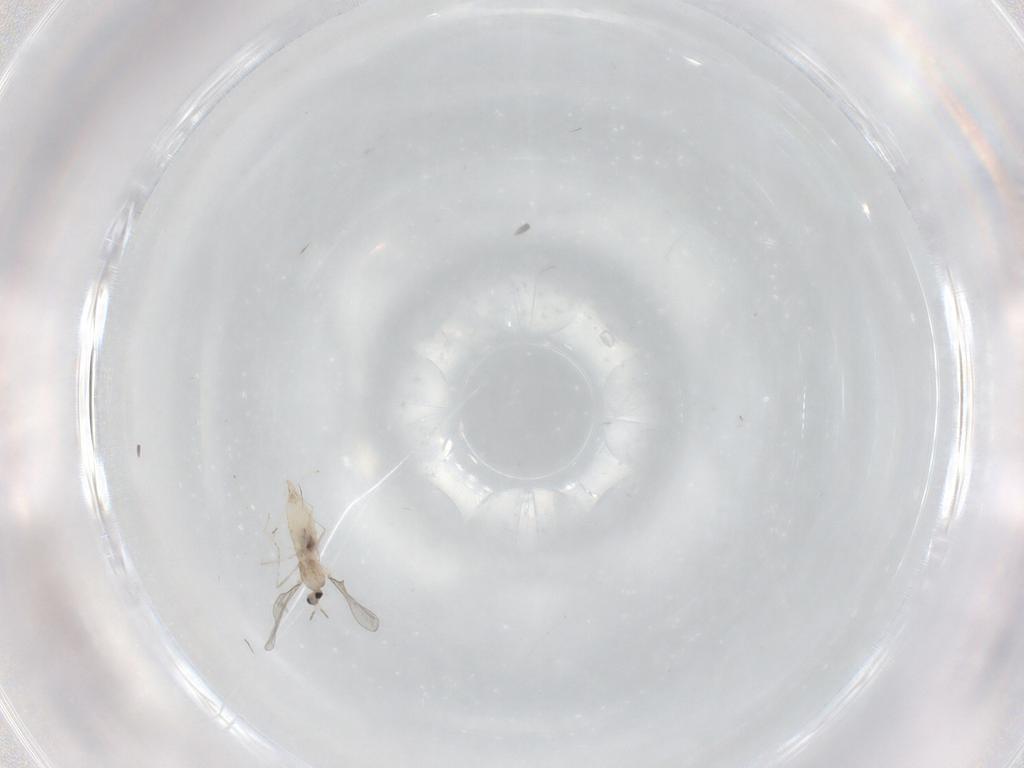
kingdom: Animalia
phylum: Arthropoda
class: Insecta
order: Diptera
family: Cecidomyiidae
